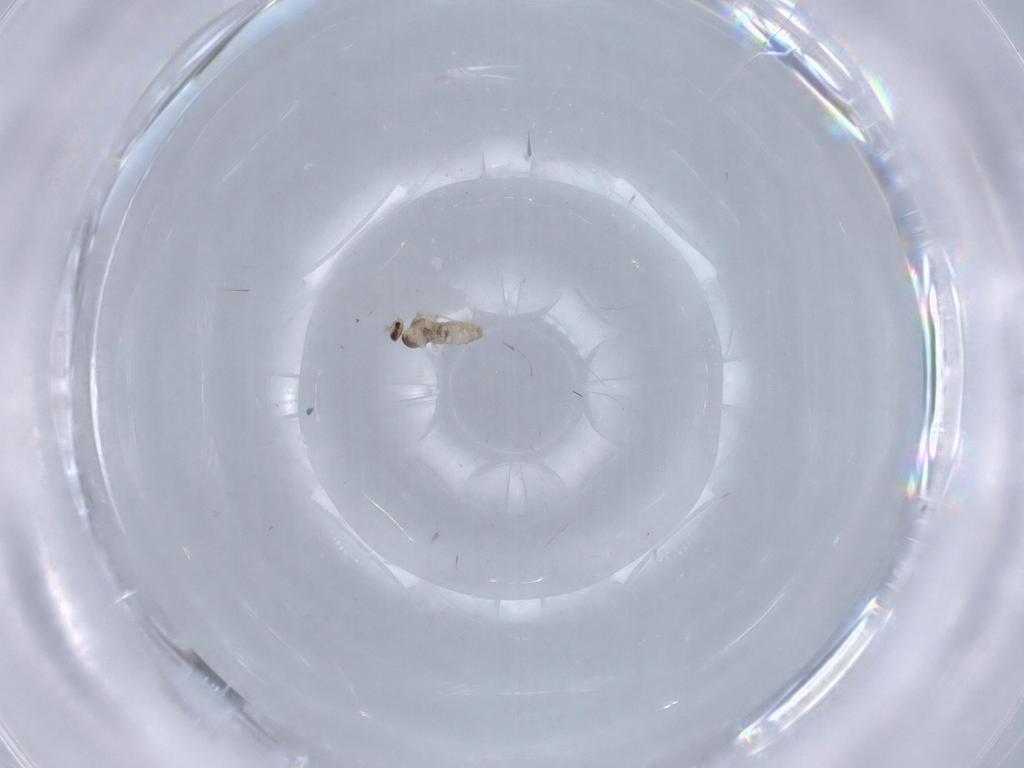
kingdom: Animalia
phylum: Arthropoda
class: Insecta
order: Diptera
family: Cecidomyiidae
